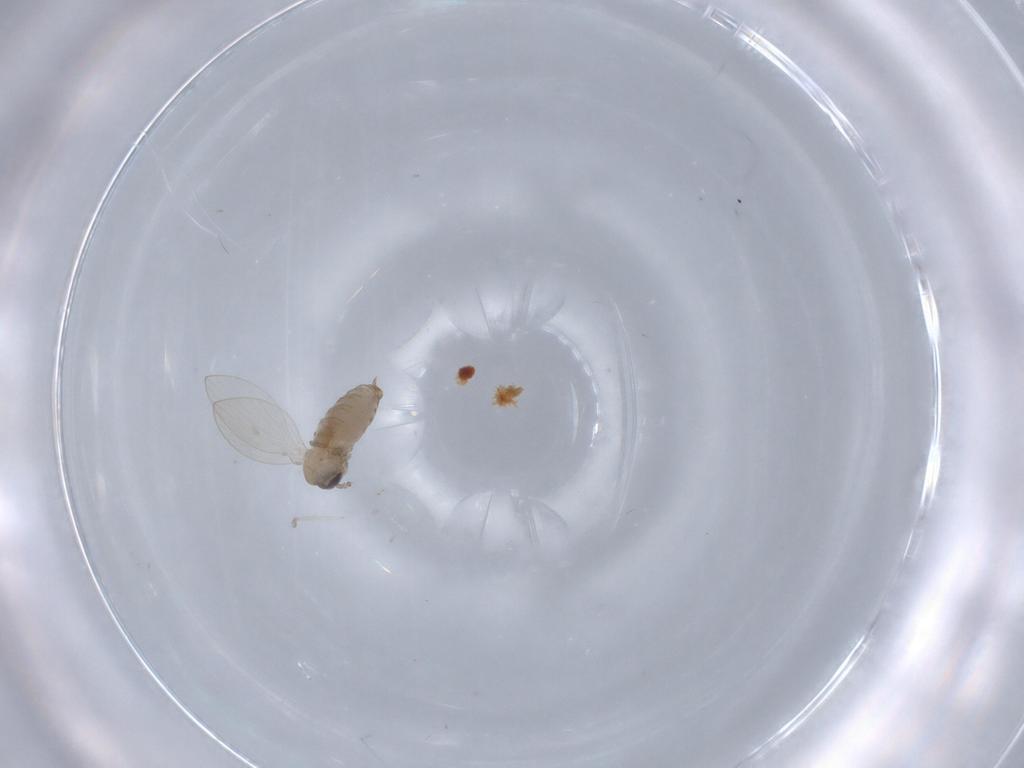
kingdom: Animalia
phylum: Arthropoda
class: Insecta
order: Diptera
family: Cecidomyiidae
